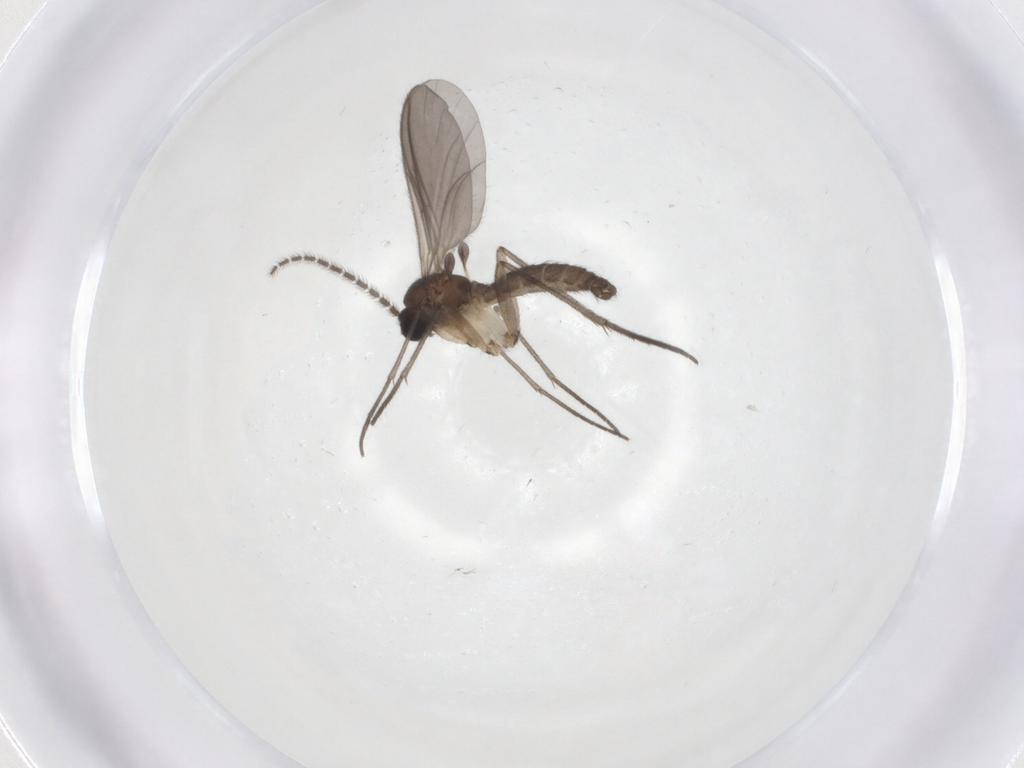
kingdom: Animalia
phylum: Arthropoda
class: Insecta
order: Diptera
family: Sciaridae
